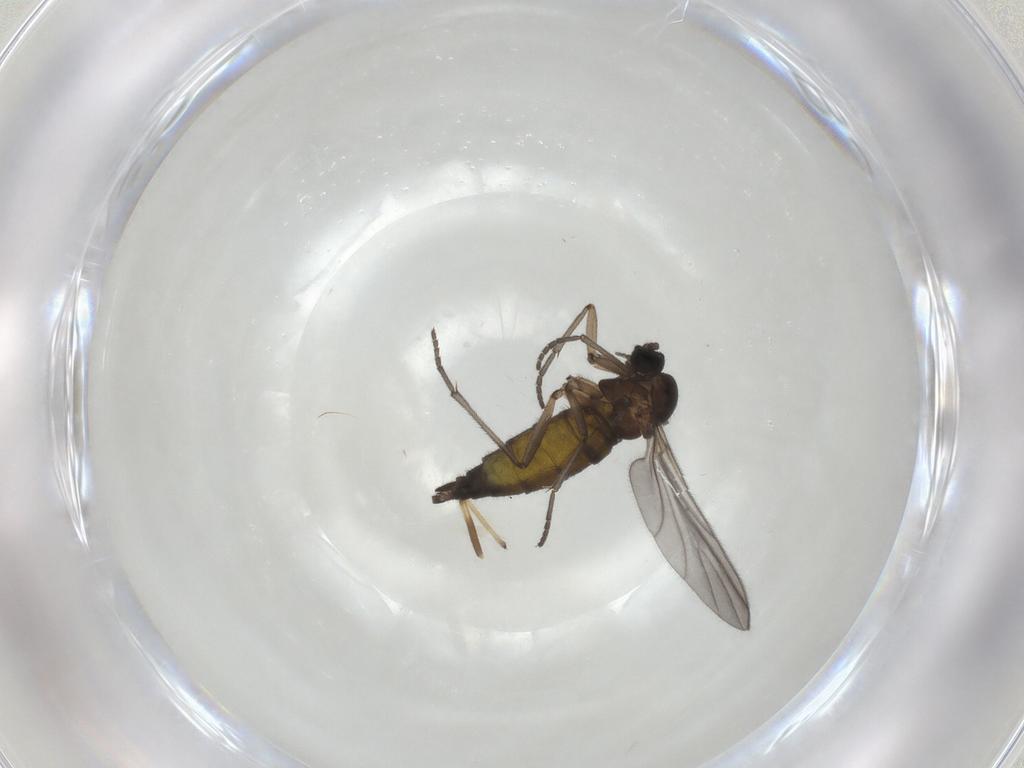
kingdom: Animalia
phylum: Arthropoda
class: Insecta
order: Diptera
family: Sciaridae
